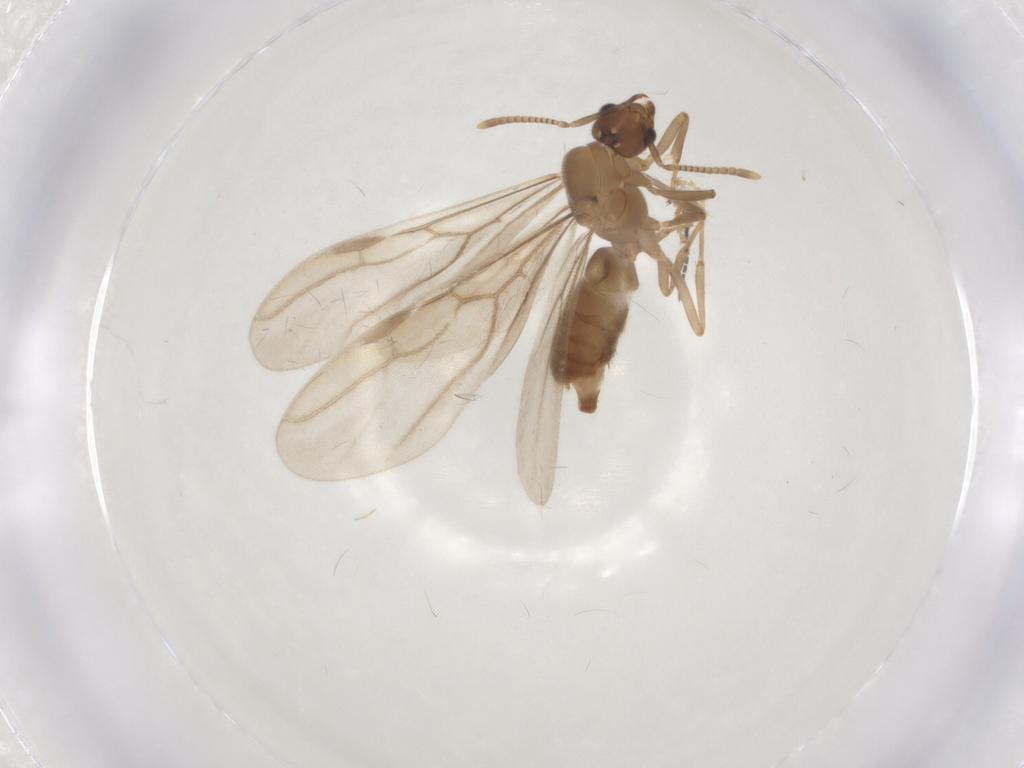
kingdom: Animalia
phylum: Arthropoda
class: Insecta
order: Hymenoptera
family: Formicidae
